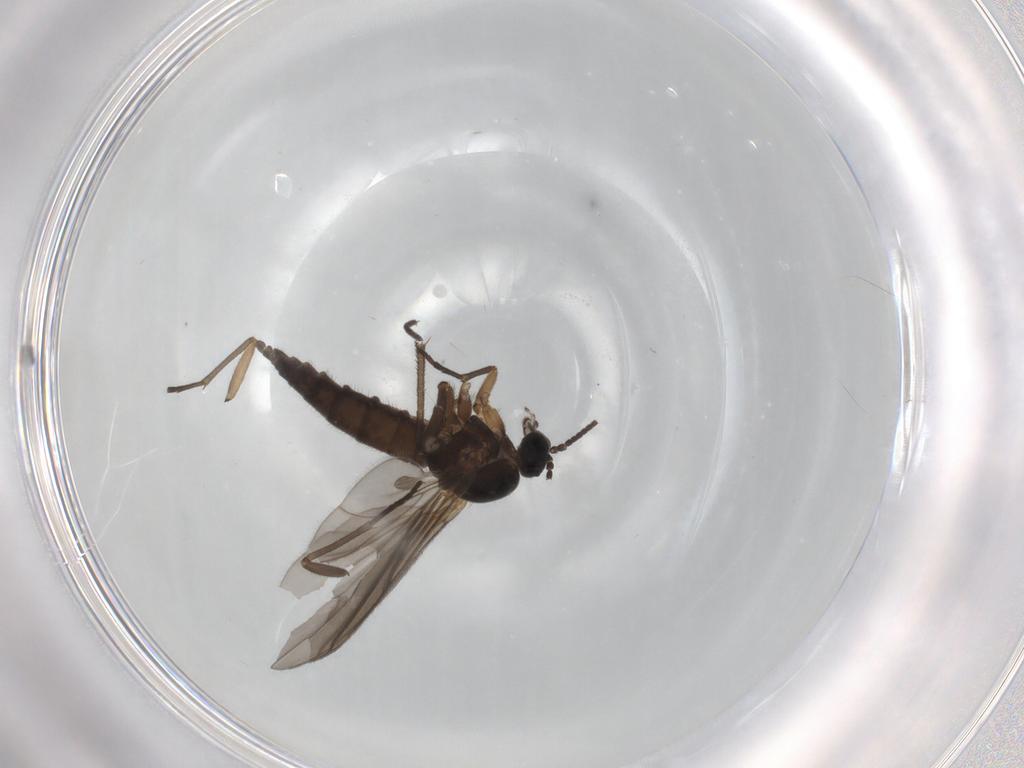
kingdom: Animalia
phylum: Arthropoda
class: Insecta
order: Diptera
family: Sciaridae
